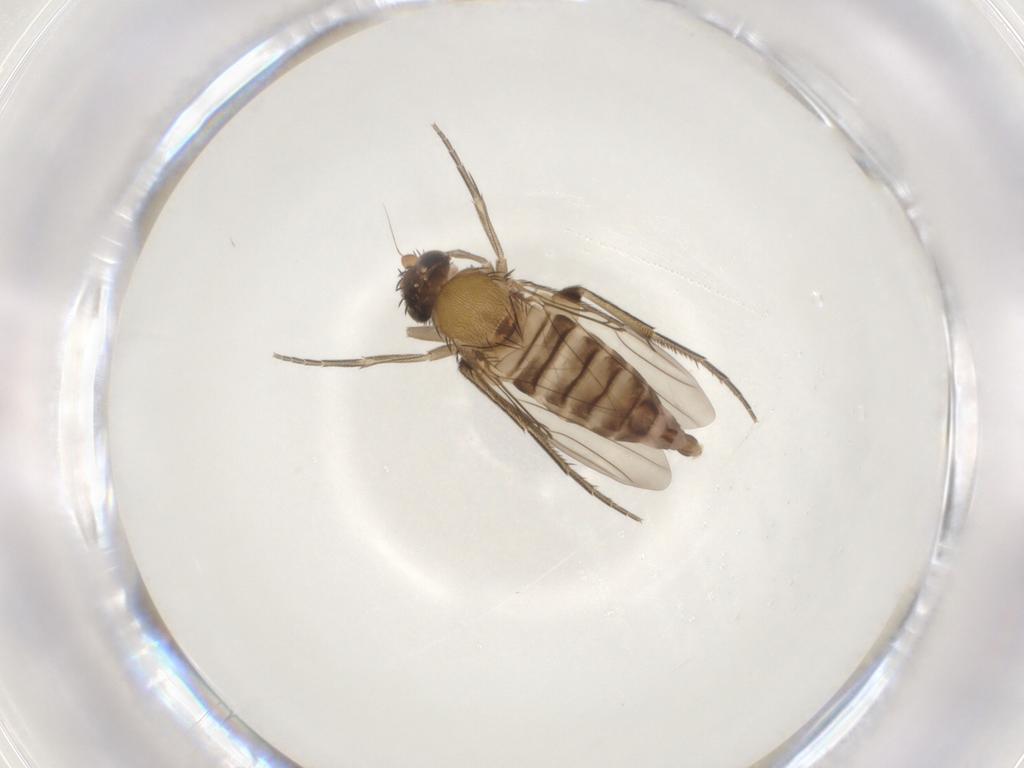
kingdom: Animalia
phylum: Arthropoda
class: Insecta
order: Diptera
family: Phoridae
